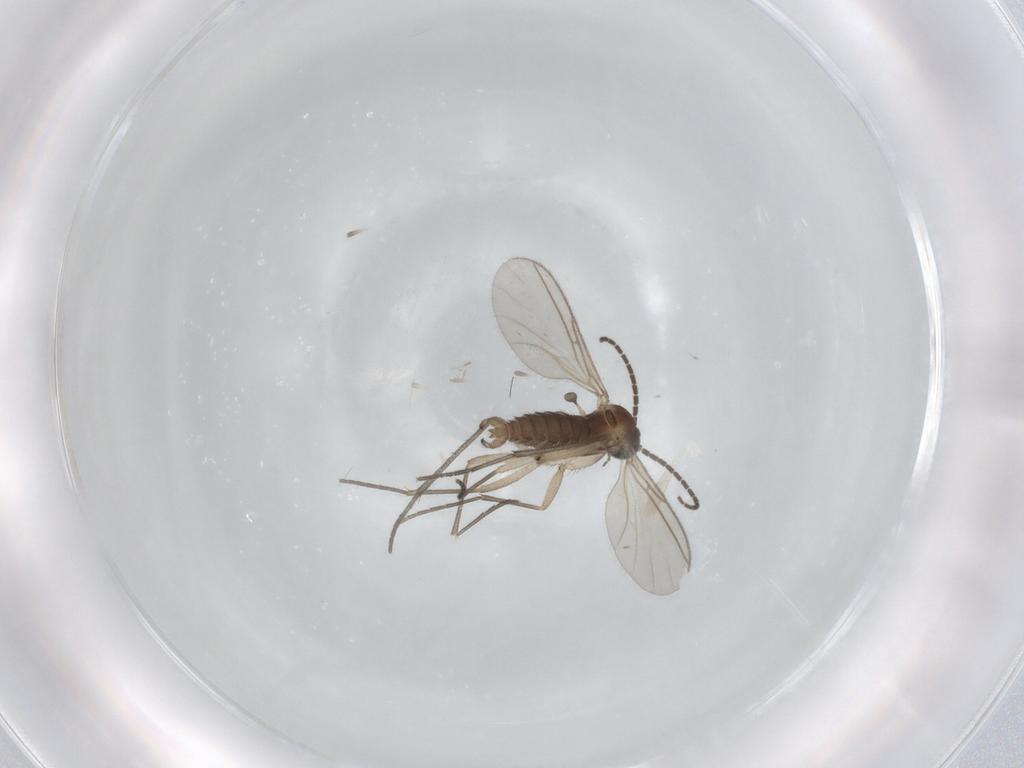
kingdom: Animalia
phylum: Arthropoda
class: Insecta
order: Diptera
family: Sciaridae
